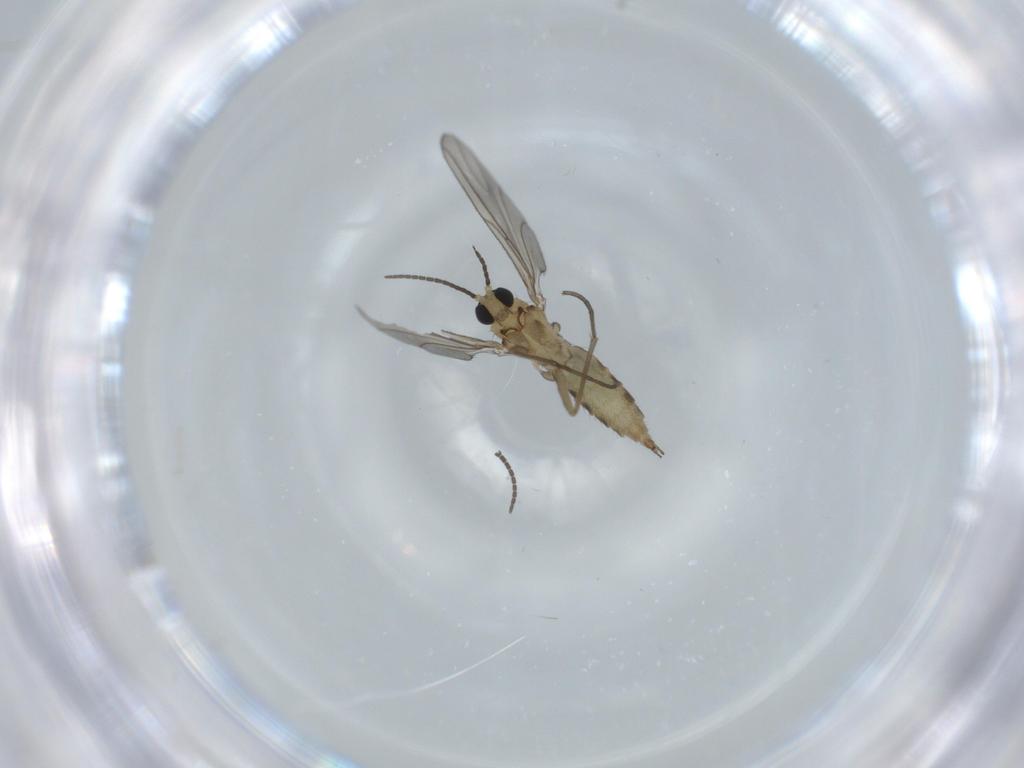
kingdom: Animalia
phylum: Arthropoda
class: Insecta
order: Diptera
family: Sciaridae
